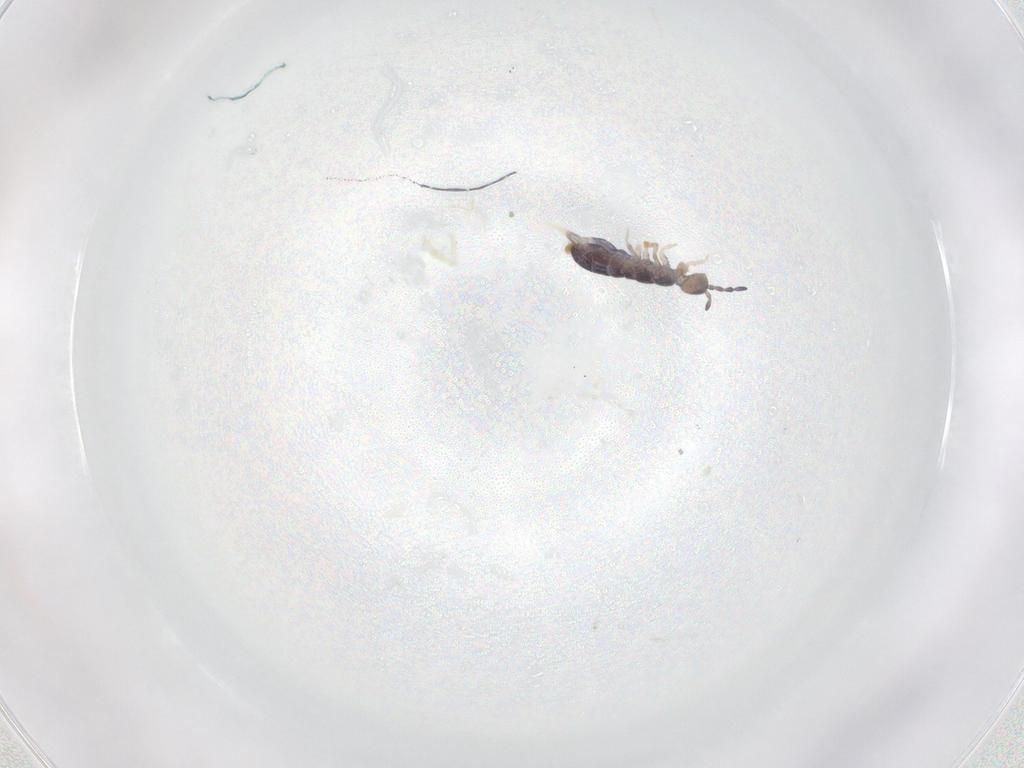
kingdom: Animalia
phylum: Arthropoda
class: Collembola
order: Entomobryomorpha
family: Isotomidae
